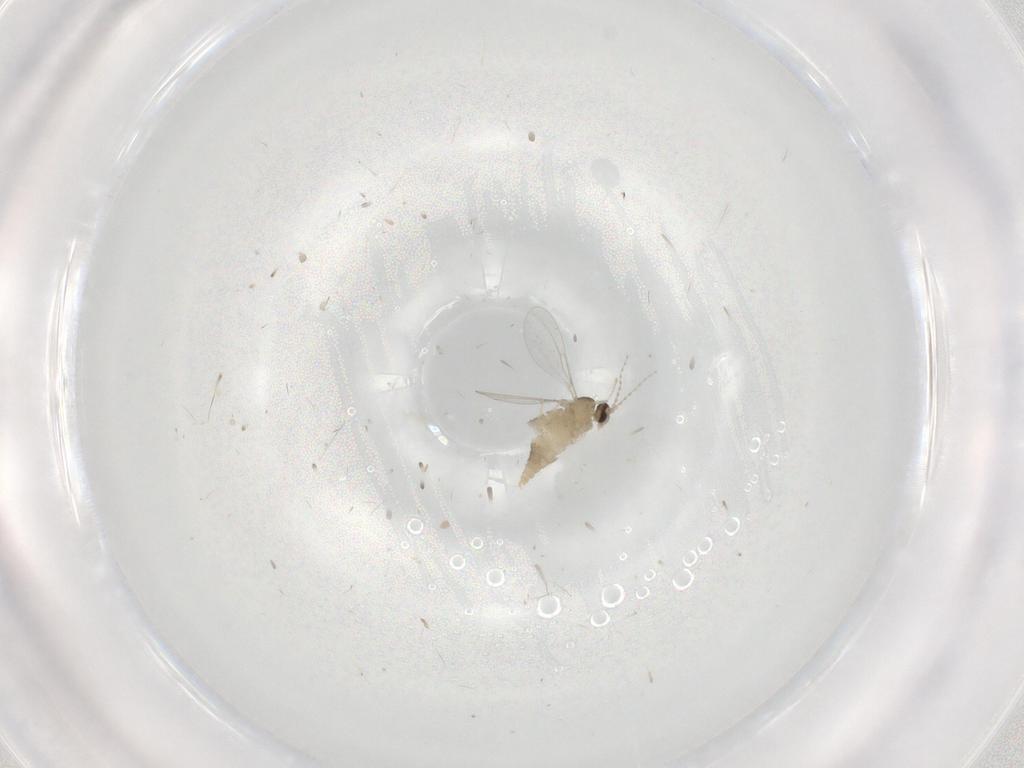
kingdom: Animalia
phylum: Arthropoda
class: Insecta
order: Diptera
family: Cecidomyiidae
